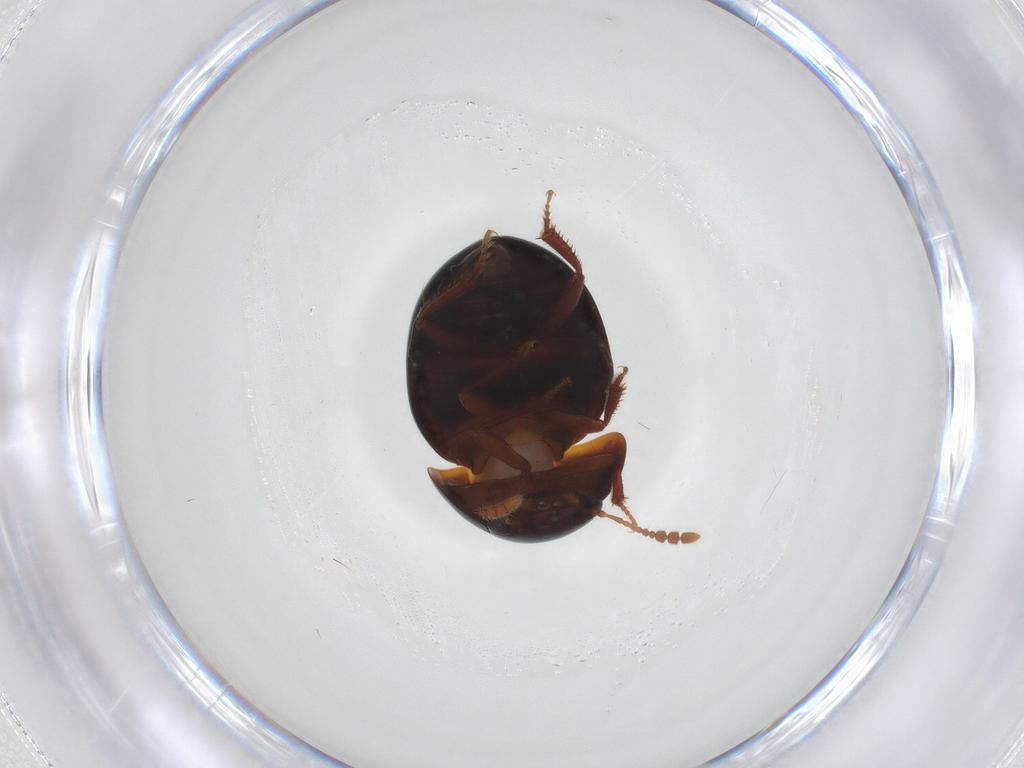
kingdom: Animalia
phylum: Arthropoda
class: Insecta
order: Coleoptera
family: Leiodidae
